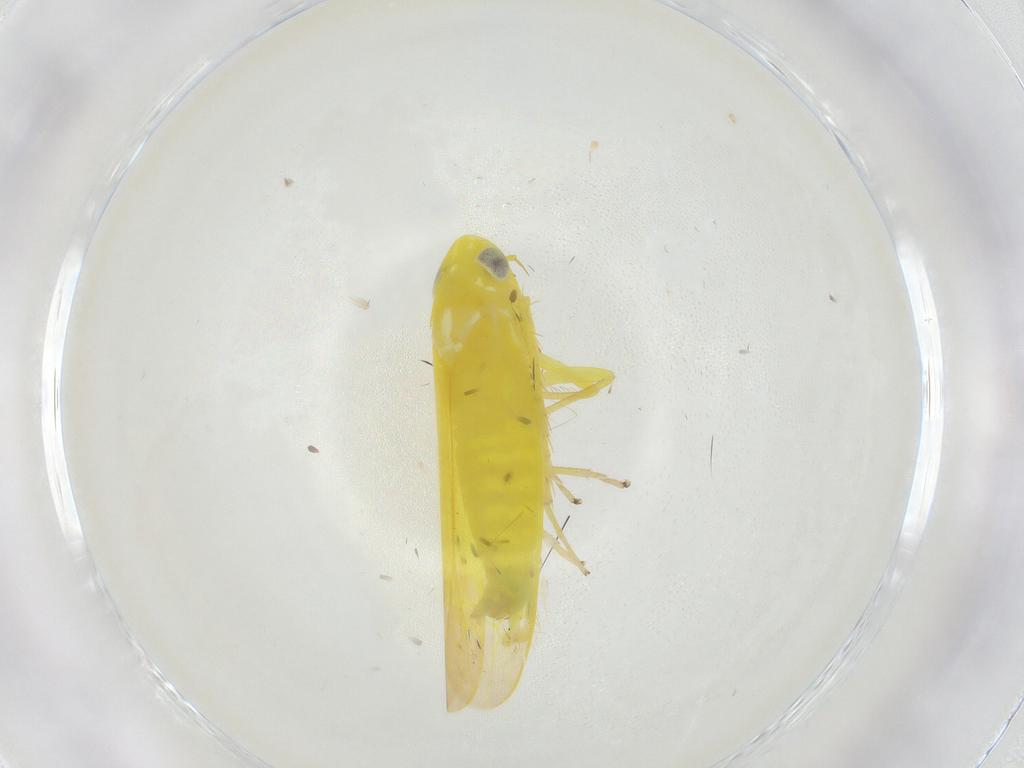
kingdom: Animalia
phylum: Arthropoda
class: Insecta
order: Hemiptera
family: Cicadellidae
